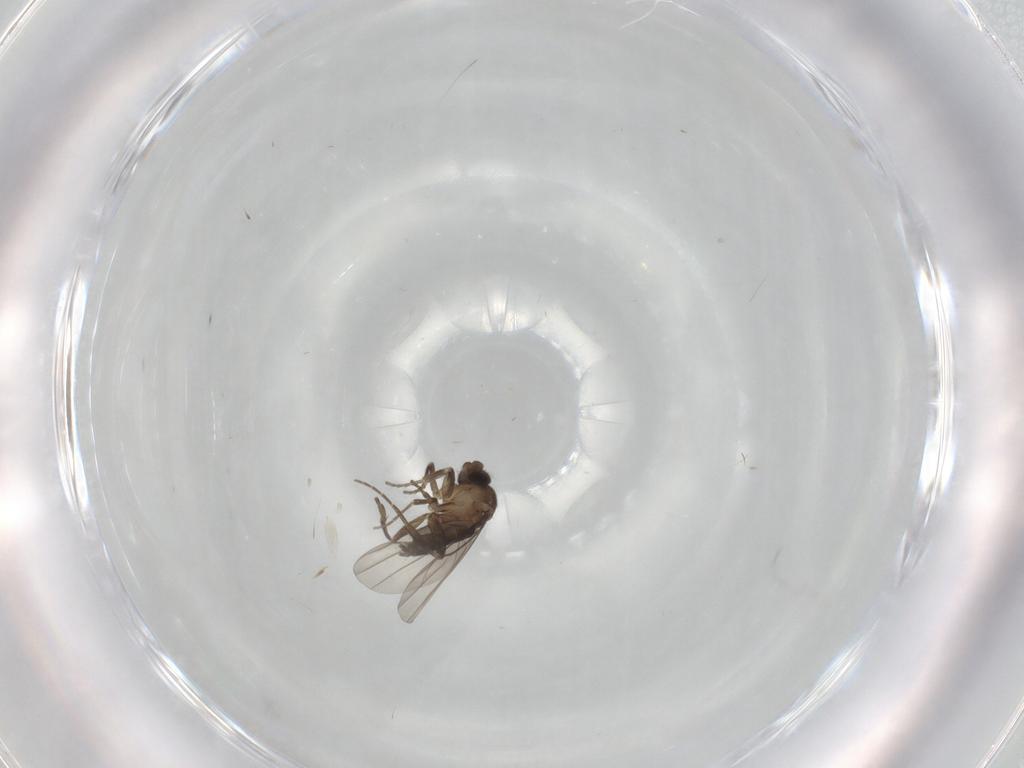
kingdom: Animalia
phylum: Arthropoda
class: Insecta
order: Diptera
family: Phoridae
